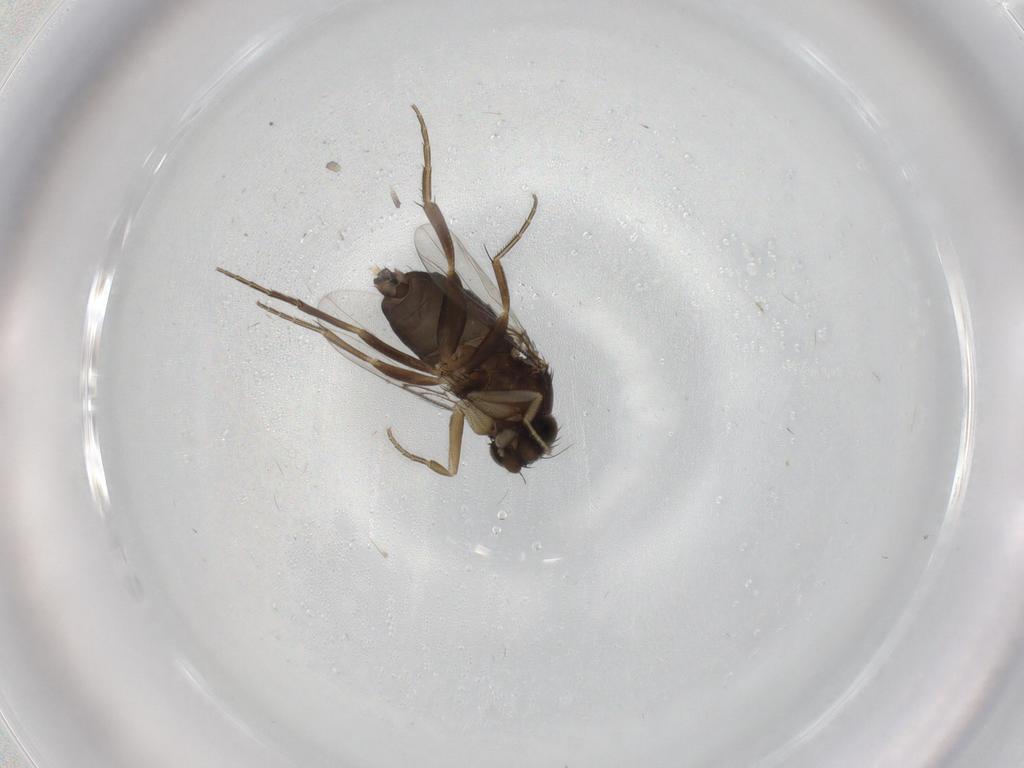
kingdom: Animalia
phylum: Arthropoda
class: Insecta
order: Diptera
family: Phoridae
